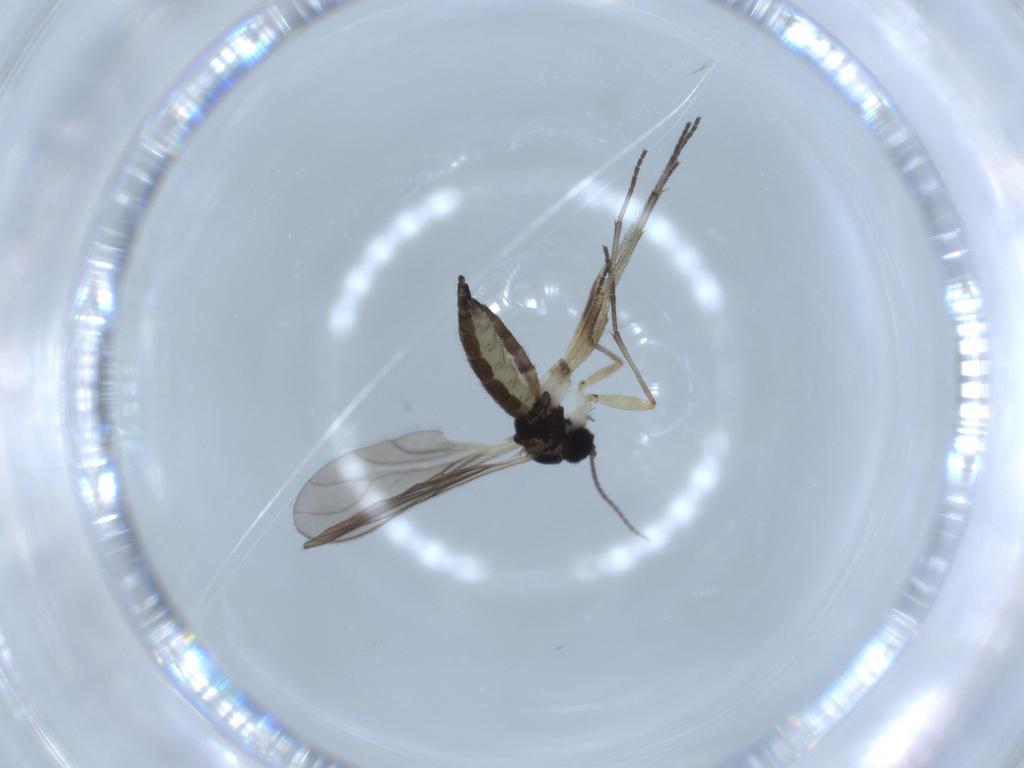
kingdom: Animalia
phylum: Arthropoda
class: Insecta
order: Diptera
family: Sciaridae
